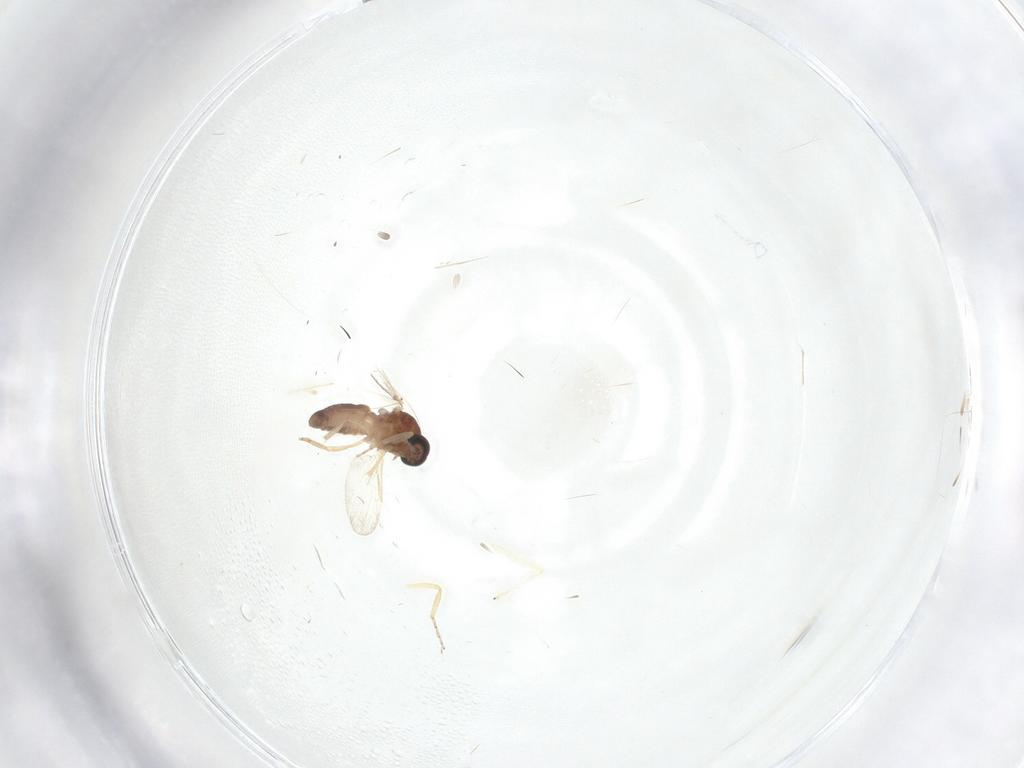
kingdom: Animalia
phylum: Arthropoda
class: Insecta
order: Diptera
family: Ceratopogonidae
